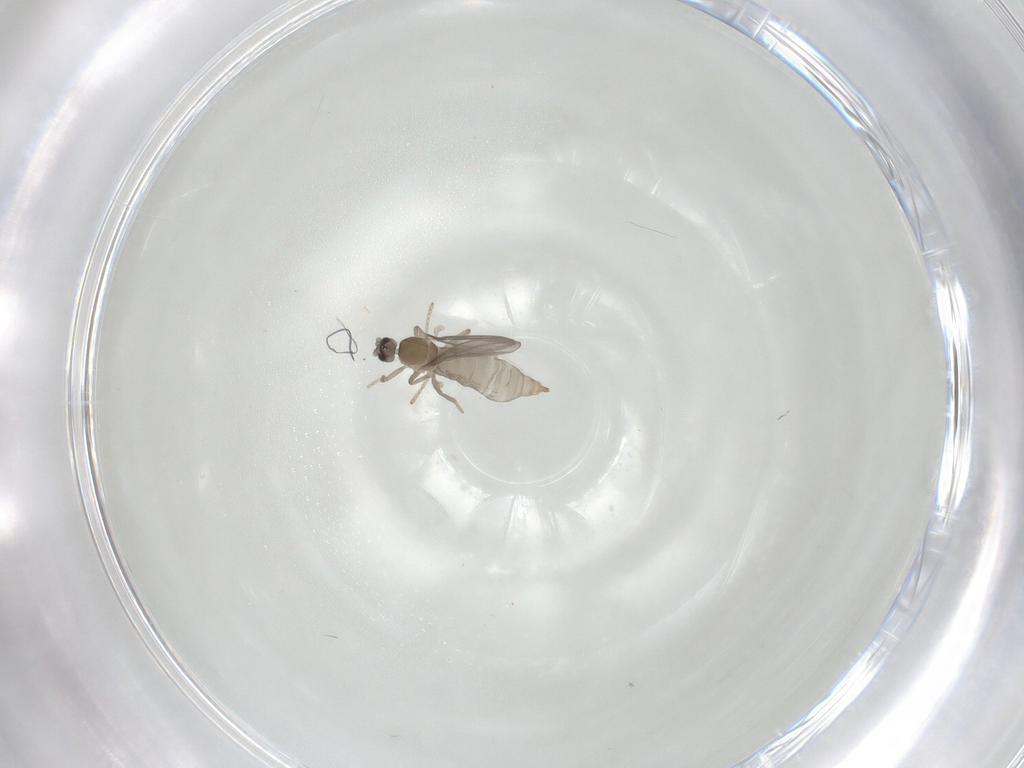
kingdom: Animalia
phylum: Arthropoda
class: Insecta
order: Diptera
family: Cecidomyiidae
